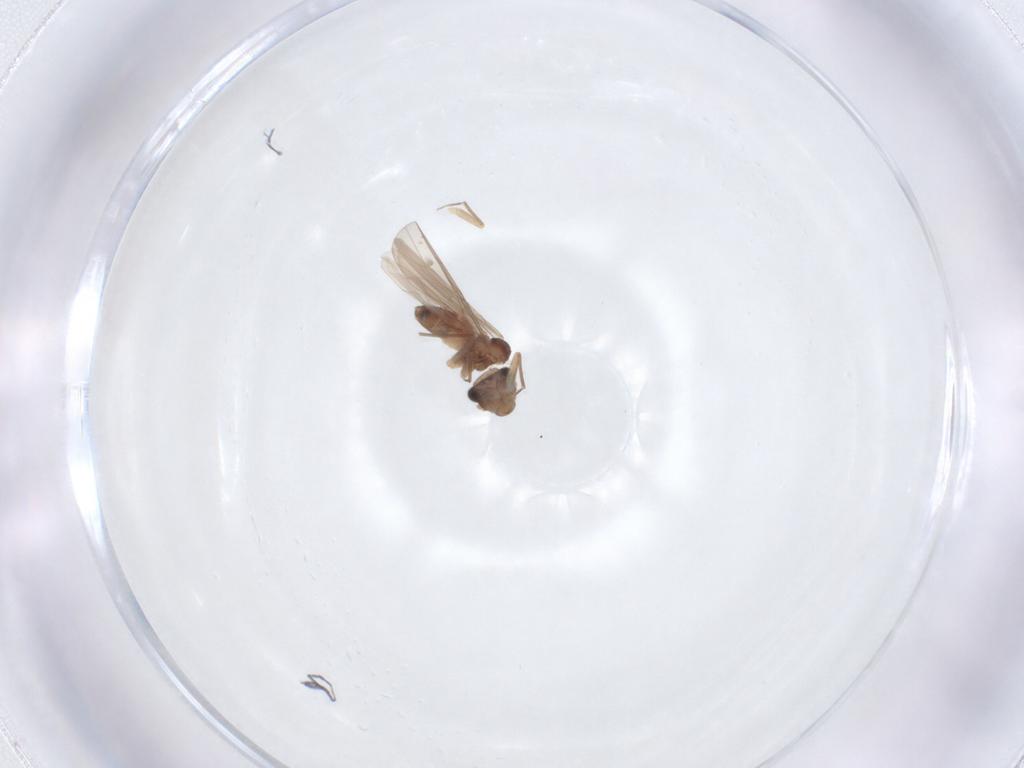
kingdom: Animalia
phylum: Arthropoda
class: Insecta
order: Psocodea
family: Lepidopsocidae
